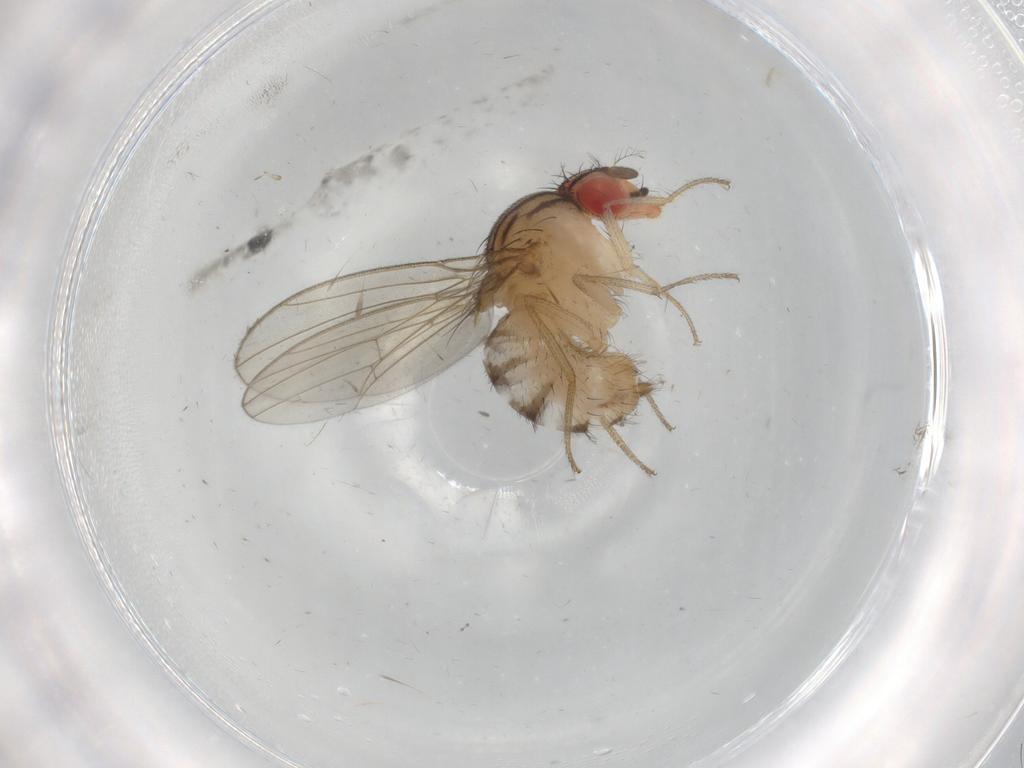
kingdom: Animalia
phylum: Arthropoda
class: Insecta
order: Diptera
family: Drosophilidae
